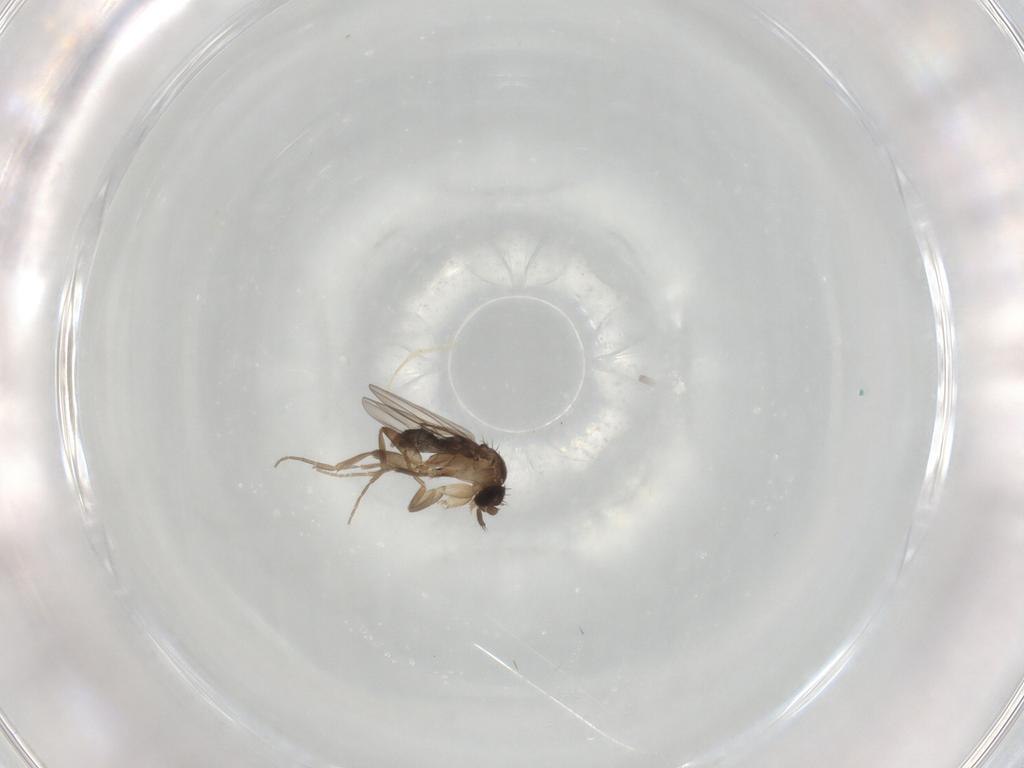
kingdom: Animalia
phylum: Arthropoda
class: Insecta
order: Diptera
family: Phoridae
